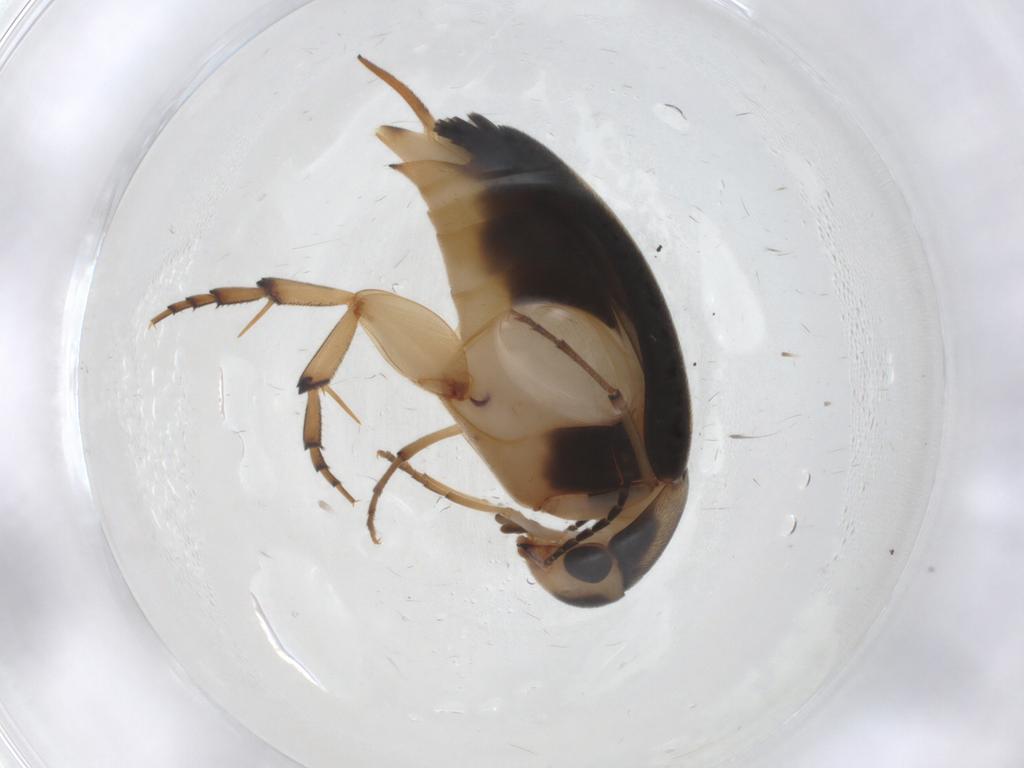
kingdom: Animalia
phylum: Arthropoda
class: Insecta
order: Coleoptera
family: Mordellidae
